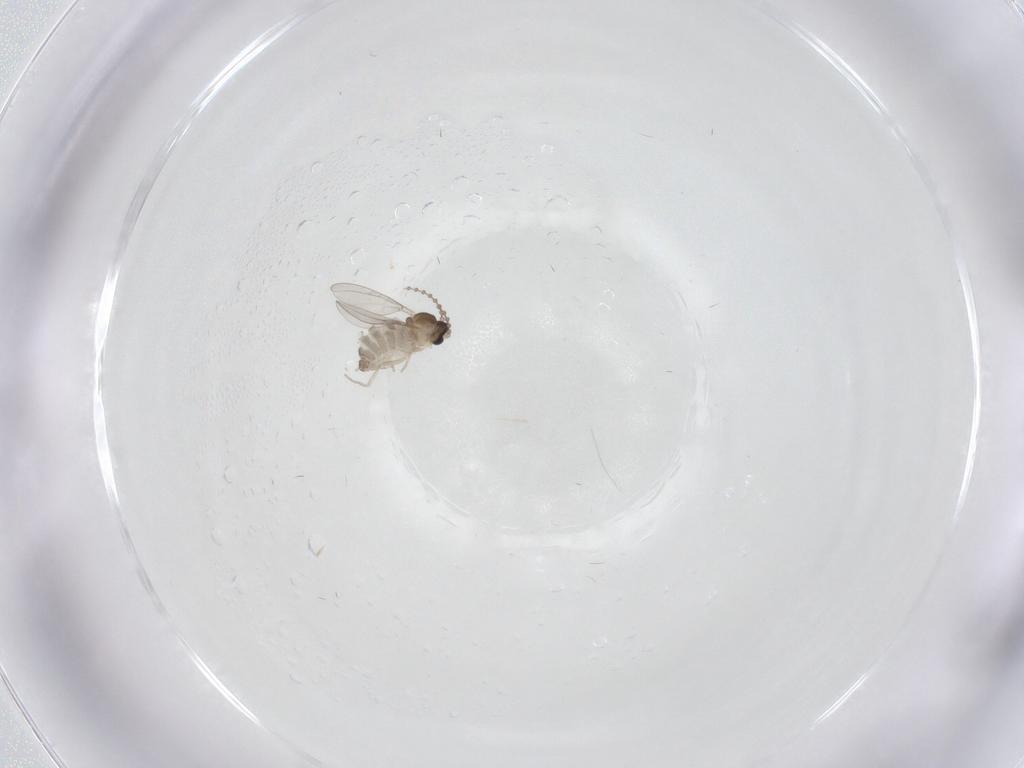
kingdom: Animalia
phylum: Arthropoda
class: Insecta
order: Diptera
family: Cecidomyiidae
